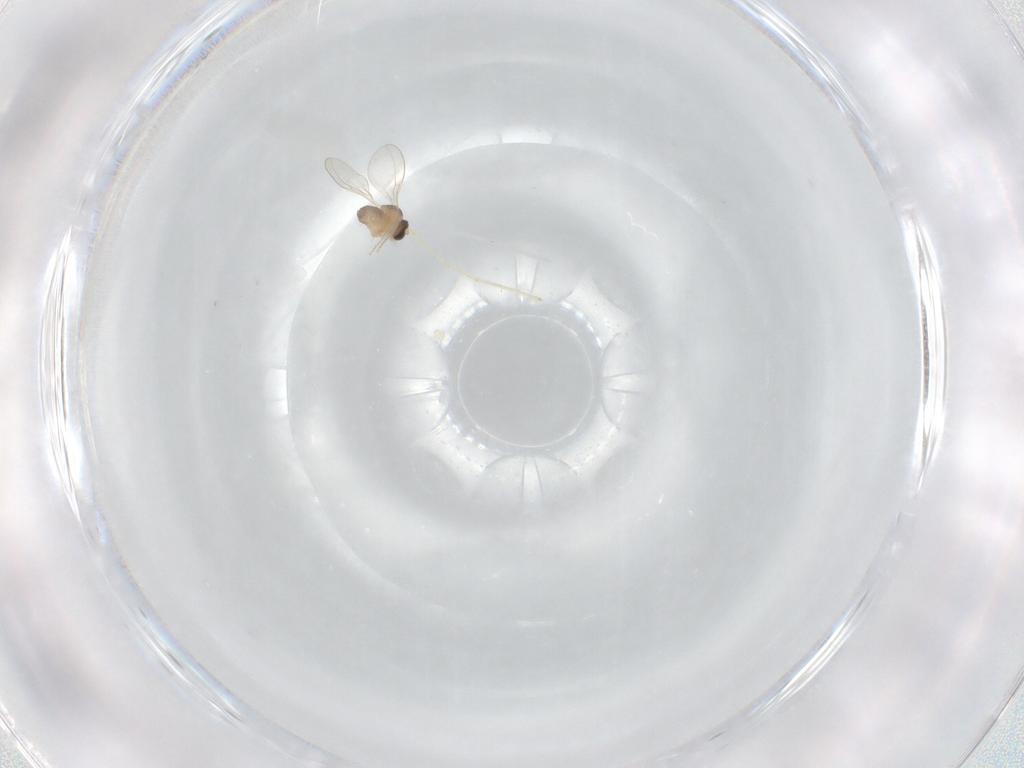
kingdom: Animalia
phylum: Arthropoda
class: Insecta
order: Diptera
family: Cecidomyiidae
